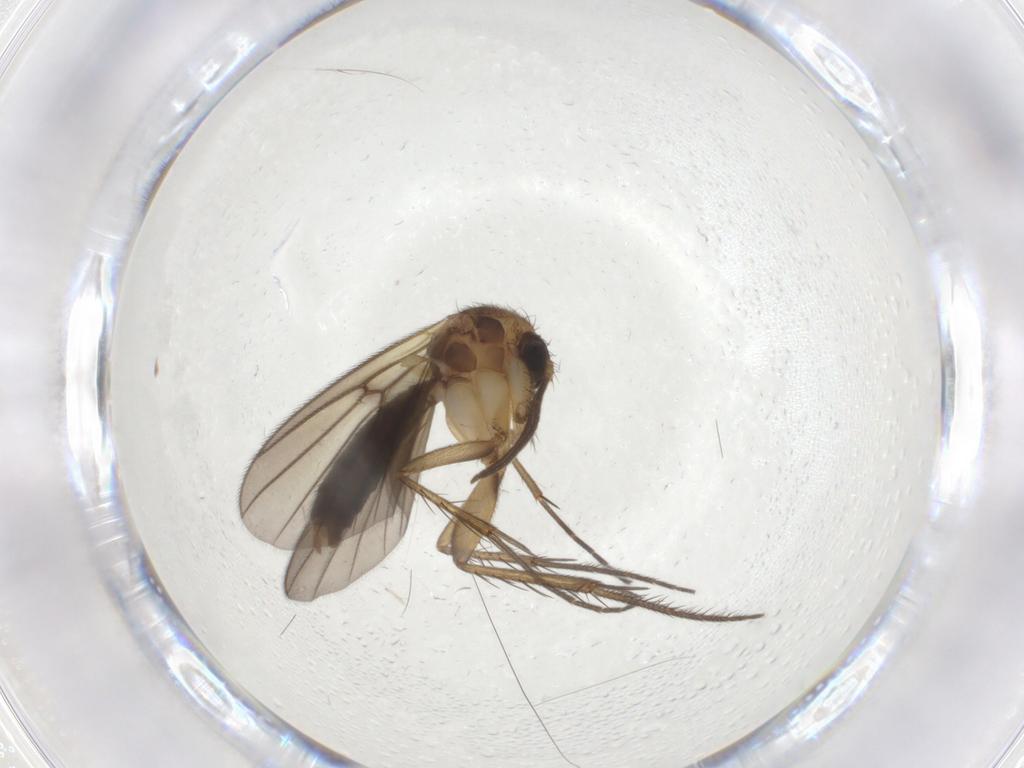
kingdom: Animalia
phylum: Arthropoda
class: Insecta
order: Diptera
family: Mycetophilidae
